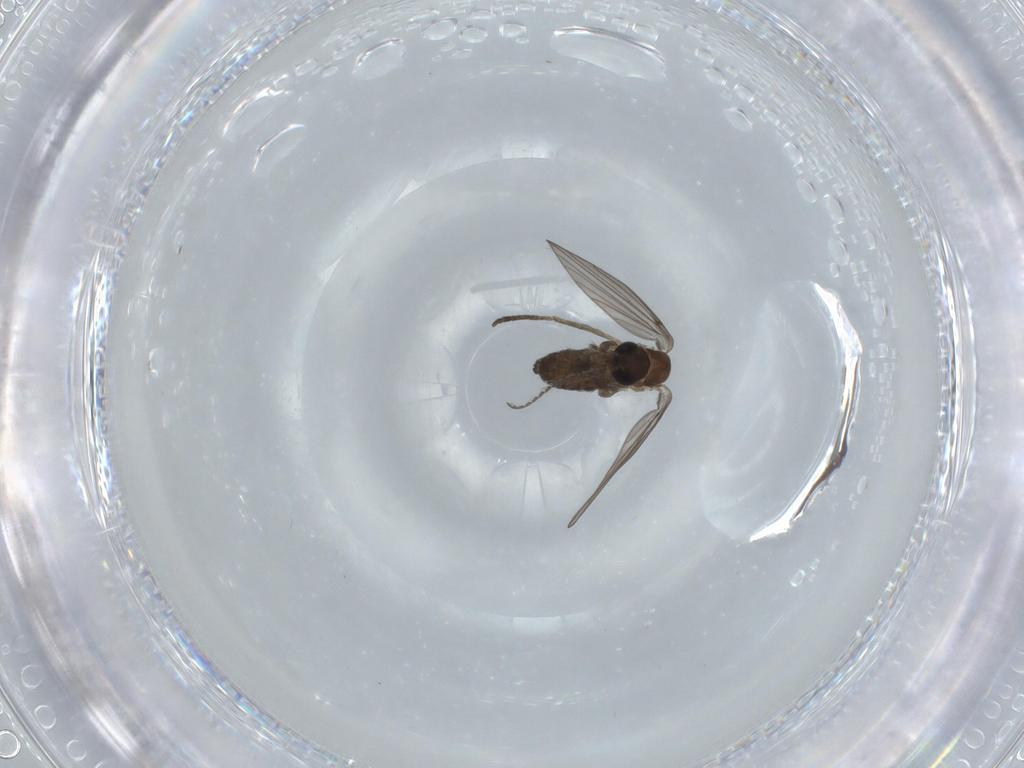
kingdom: Animalia
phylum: Arthropoda
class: Insecta
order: Diptera
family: Psychodidae
